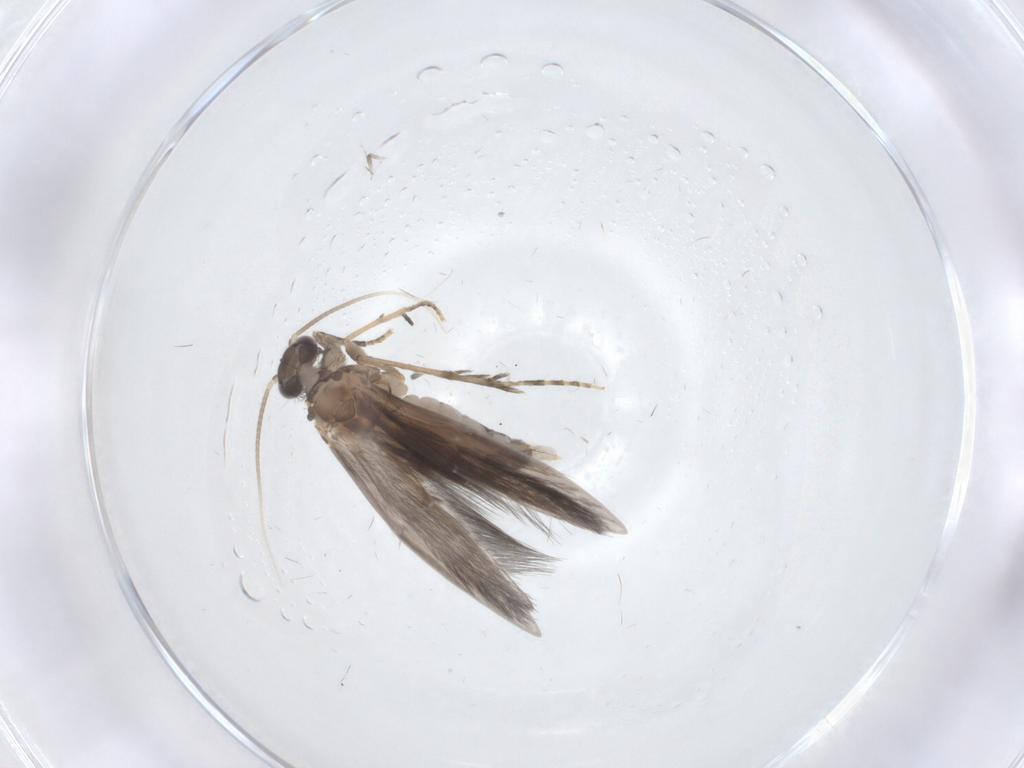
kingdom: Animalia
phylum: Arthropoda
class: Insecta
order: Trichoptera
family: Hydroptilidae
